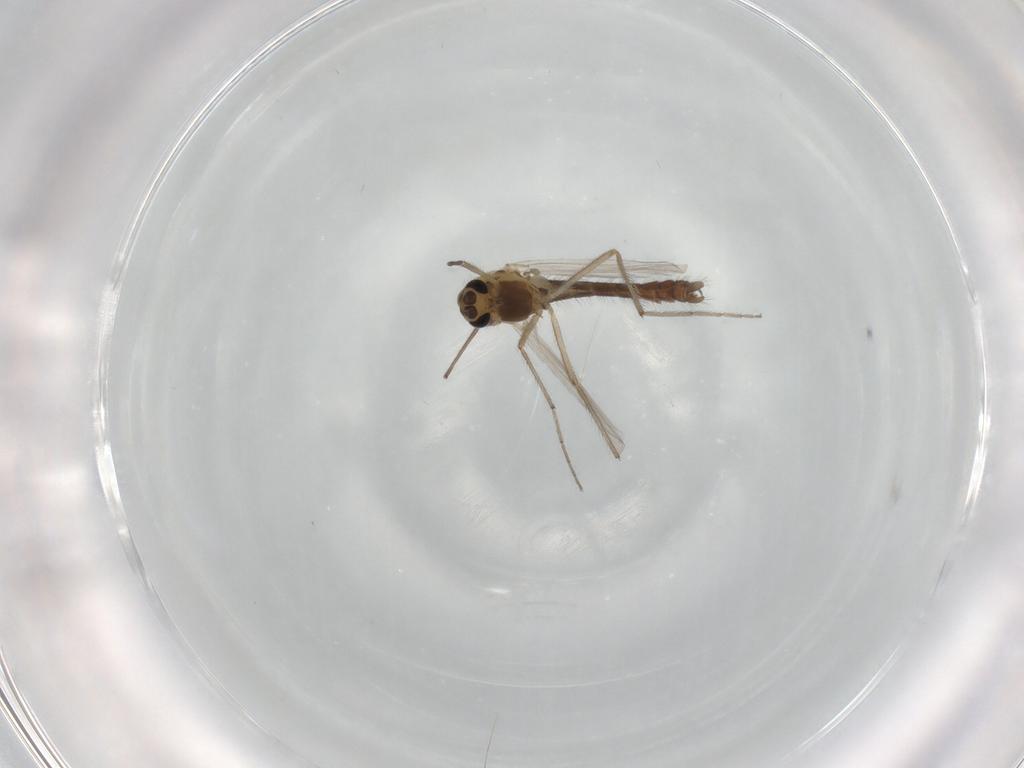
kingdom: Animalia
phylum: Arthropoda
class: Insecta
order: Diptera
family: Chironomidae
